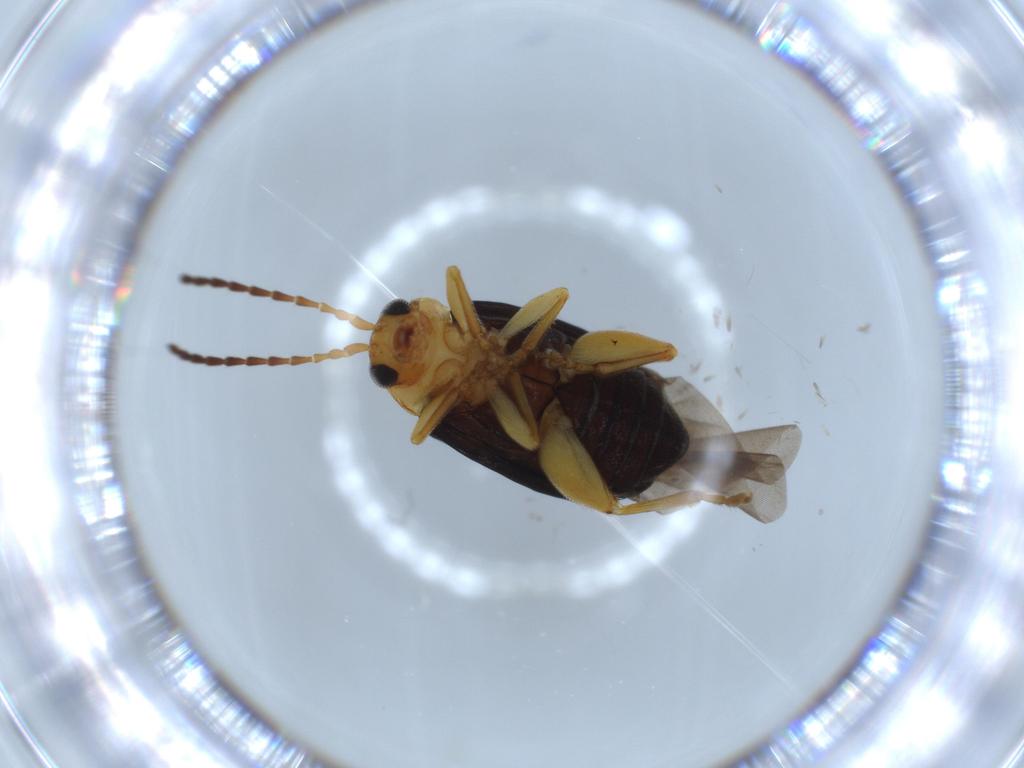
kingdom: Animalia
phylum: Arthropoda
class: Insecta
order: Coleoptera
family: Chrysomelidae
